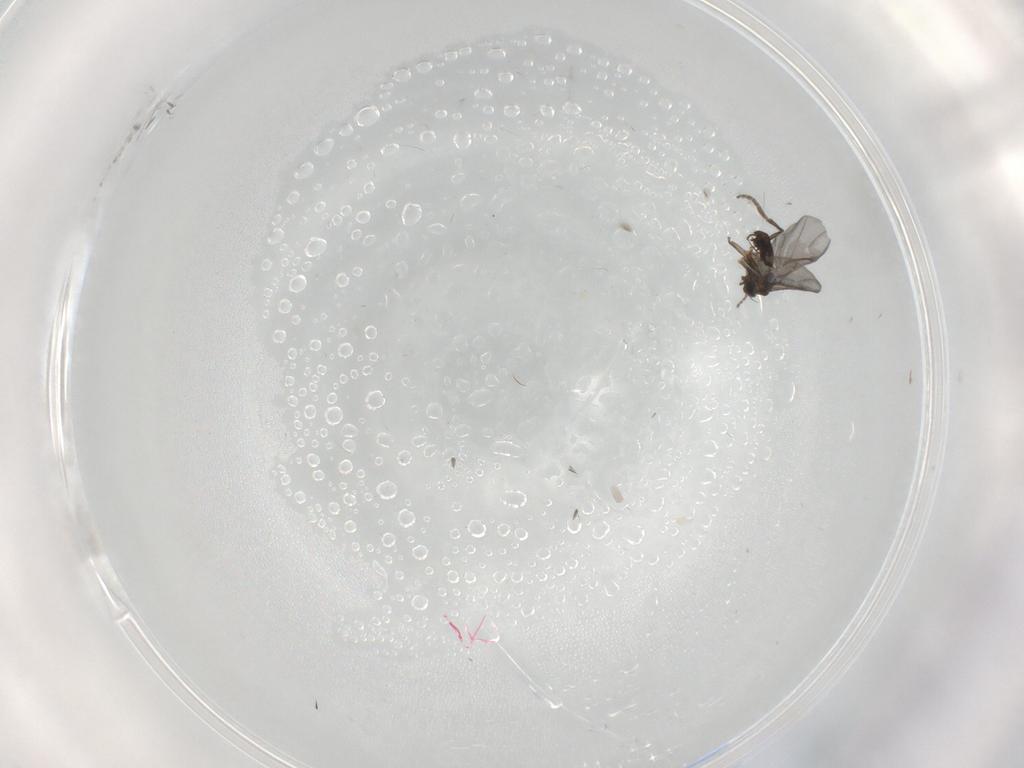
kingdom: Animalia
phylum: Arthropoda
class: Insecta
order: Diptera
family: Phoridae
